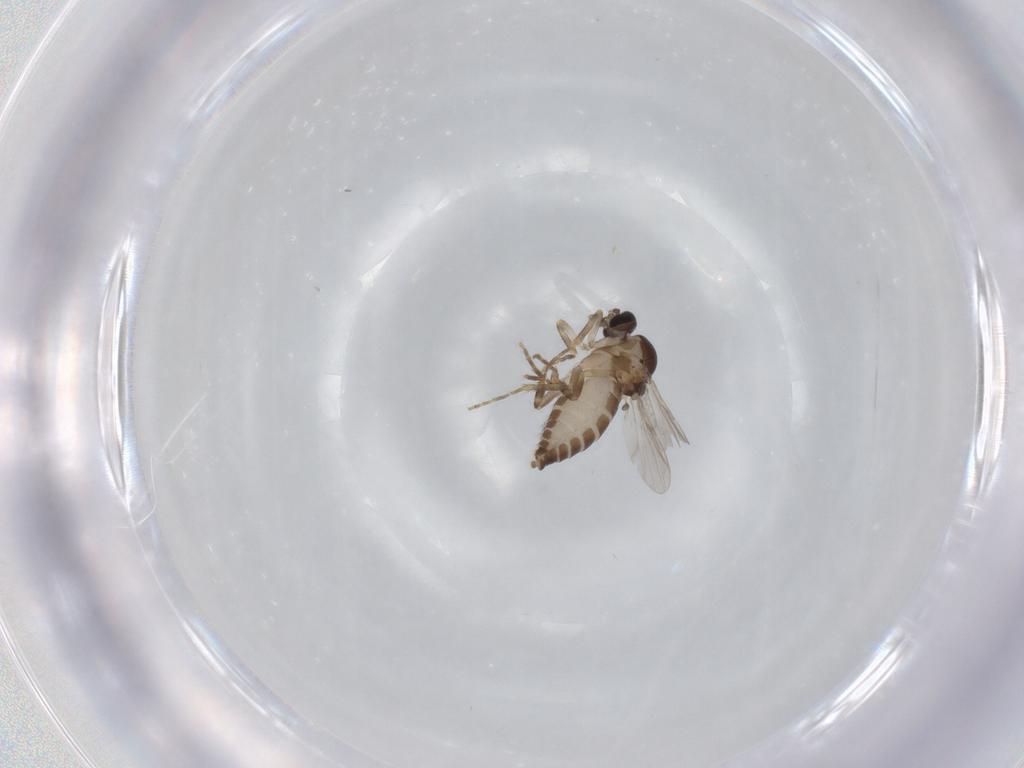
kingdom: Animalia
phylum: Arthropoda
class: Insecta
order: Diptera
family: Ceratopogonidae
